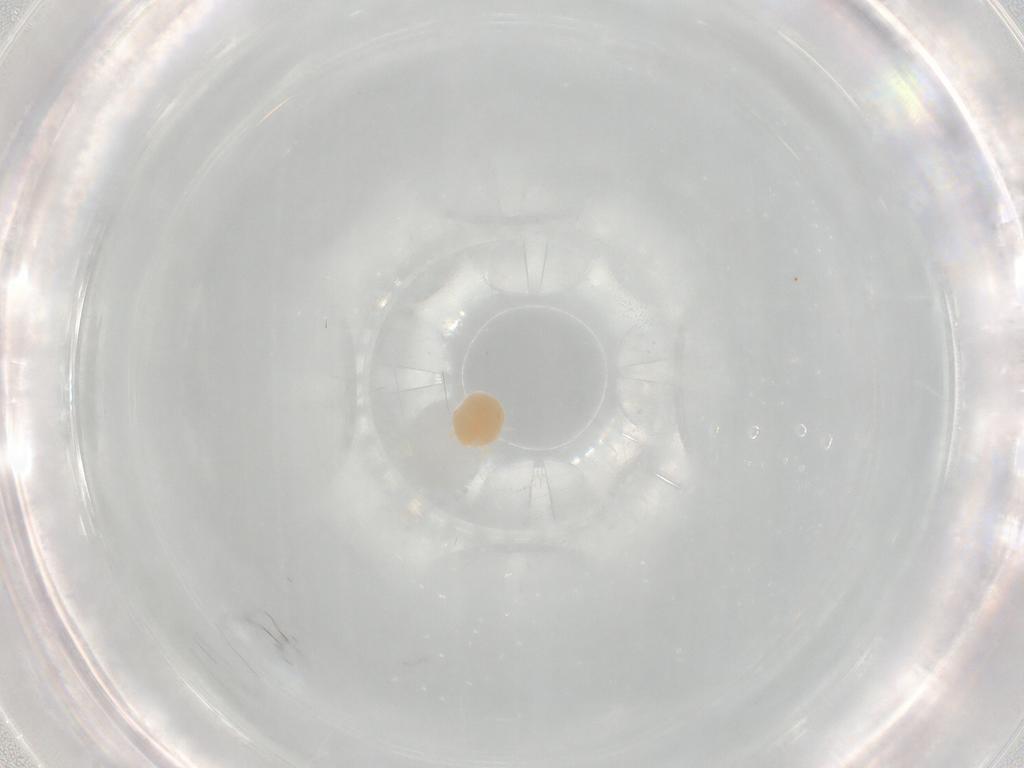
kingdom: Animalia
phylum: Arthropoda
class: Arachnida
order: Trombidiformes
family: Microtrombidiidae
